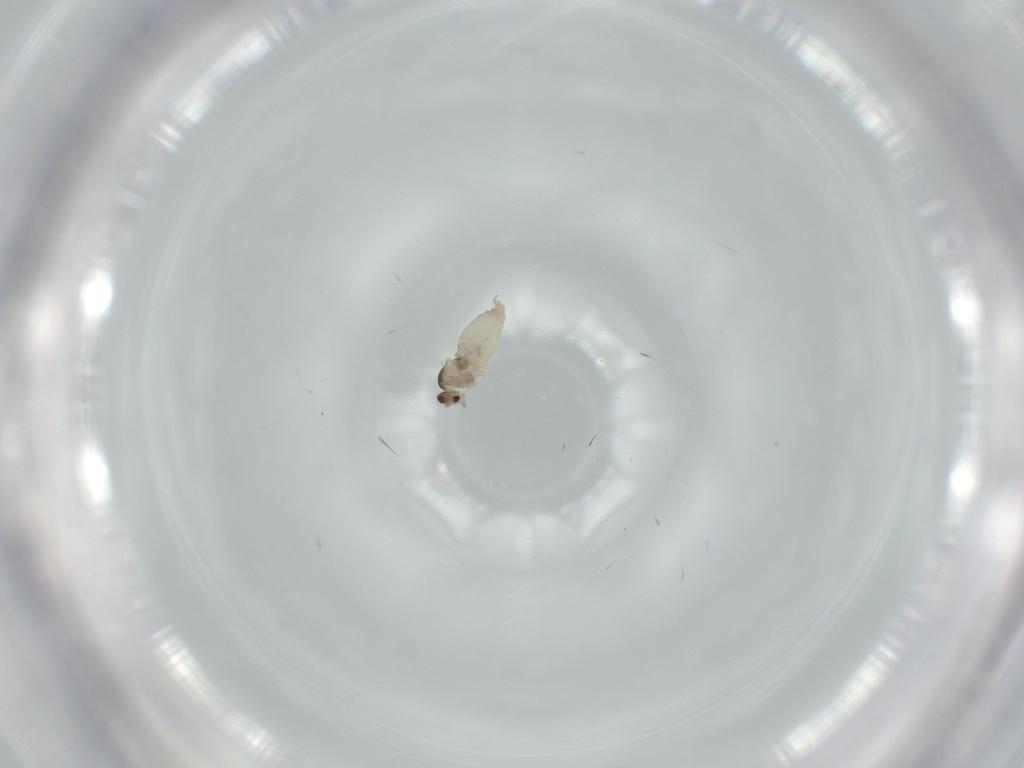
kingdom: Animalia
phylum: Arthropoda
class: Insecta
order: Diptera
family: Cecidomyiidae
